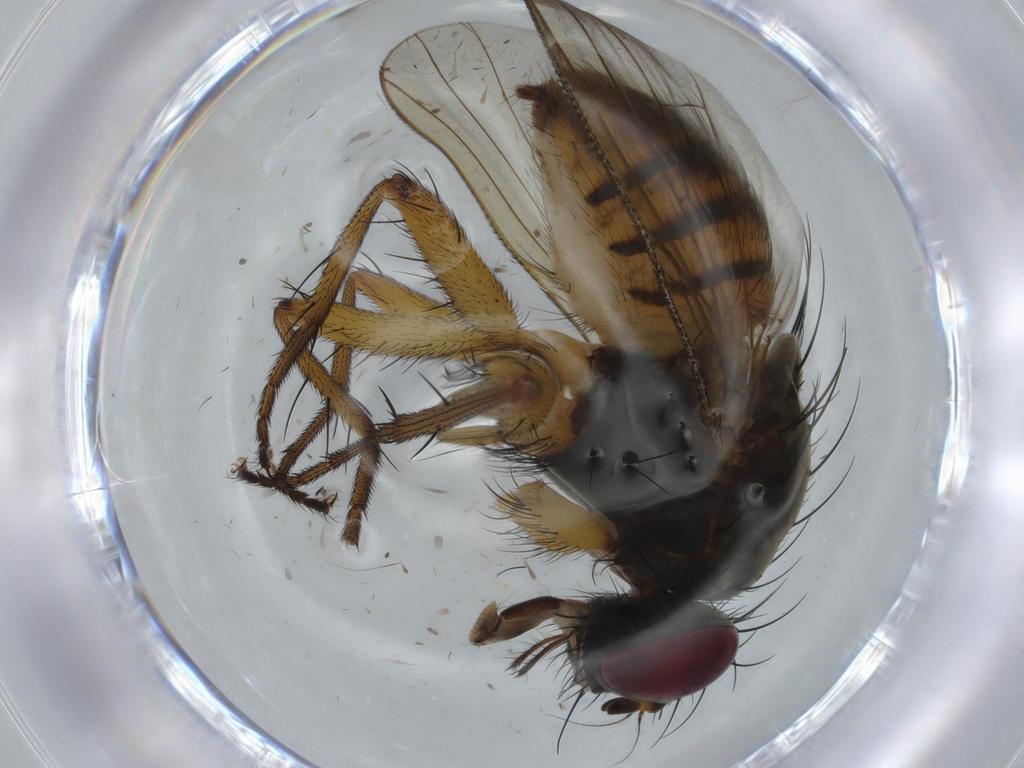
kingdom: Animalia
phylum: Arthropoda
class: Insecta
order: Diptera
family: Muscidae
